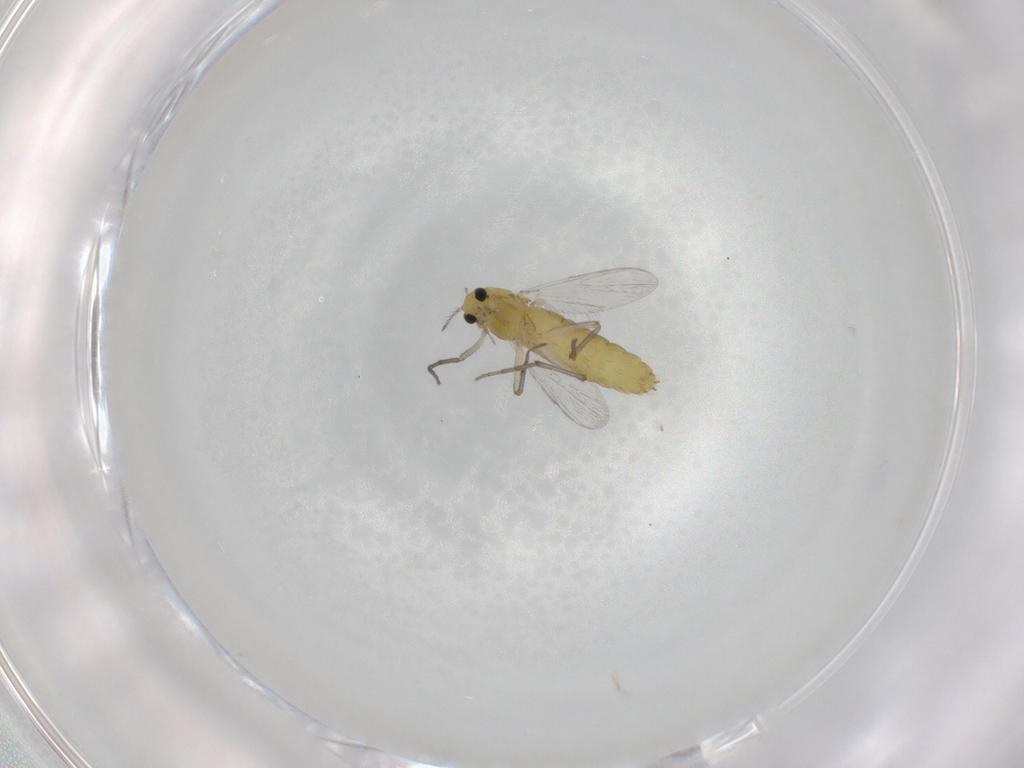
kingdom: Animalia
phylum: Arthropoda
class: Insecta
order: Diptera
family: Chironomidae
